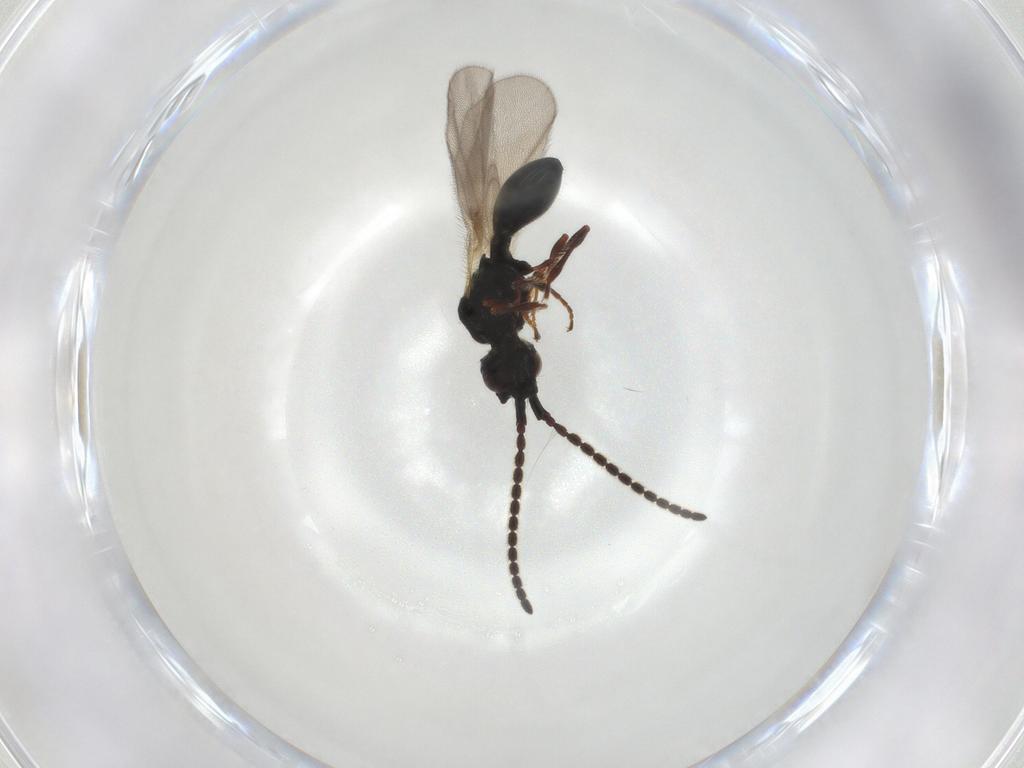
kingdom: Animalia
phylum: Arthropoda
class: Insecta
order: Hymenoptera
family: Diapriidae
